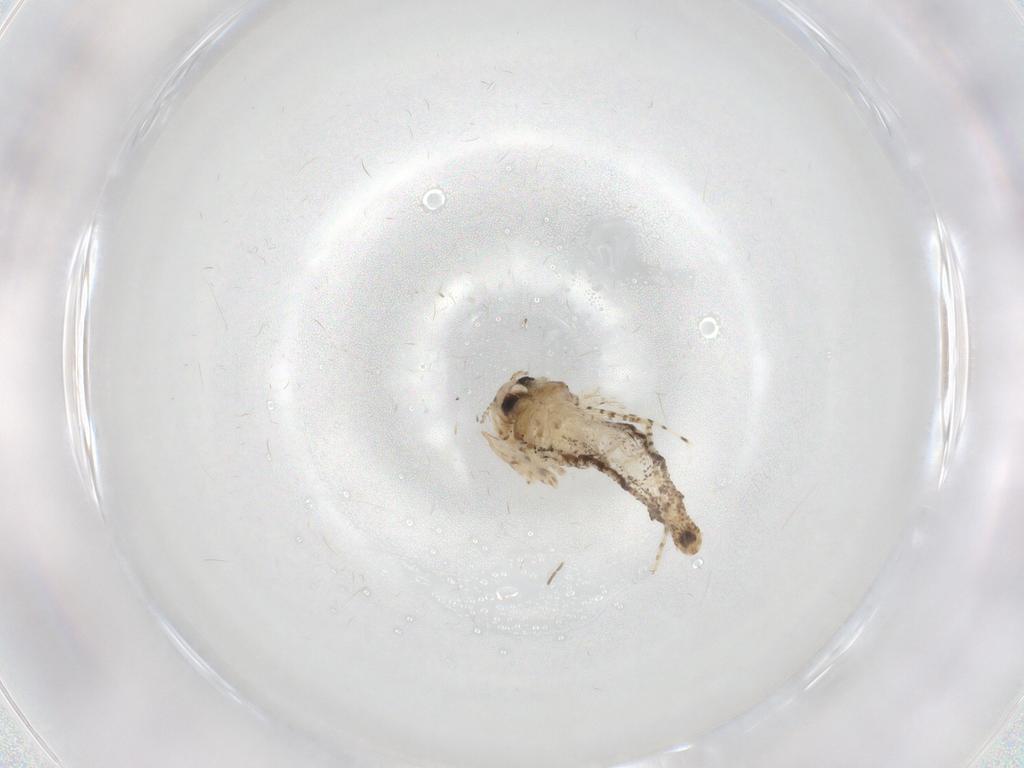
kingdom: Animalia
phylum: Arthropoda
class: Insecta
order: Diptera
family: Chaoboridae
